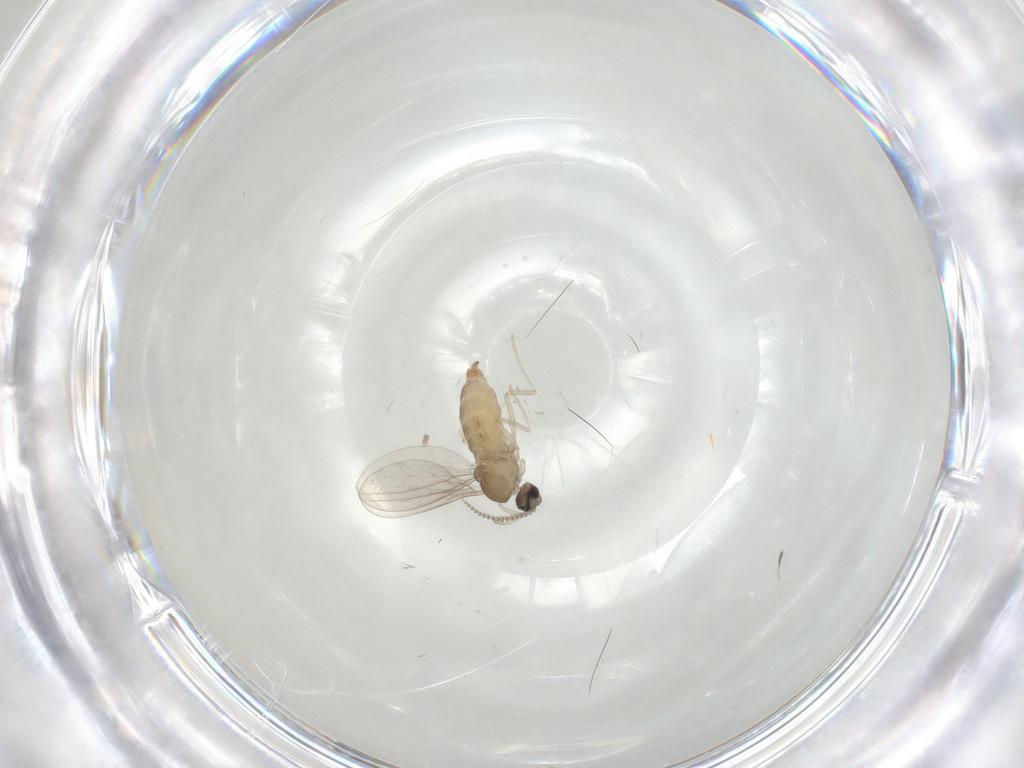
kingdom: Animalia
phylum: Arthropoda
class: Insecta
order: Diptera
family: Cecidomyiidae
